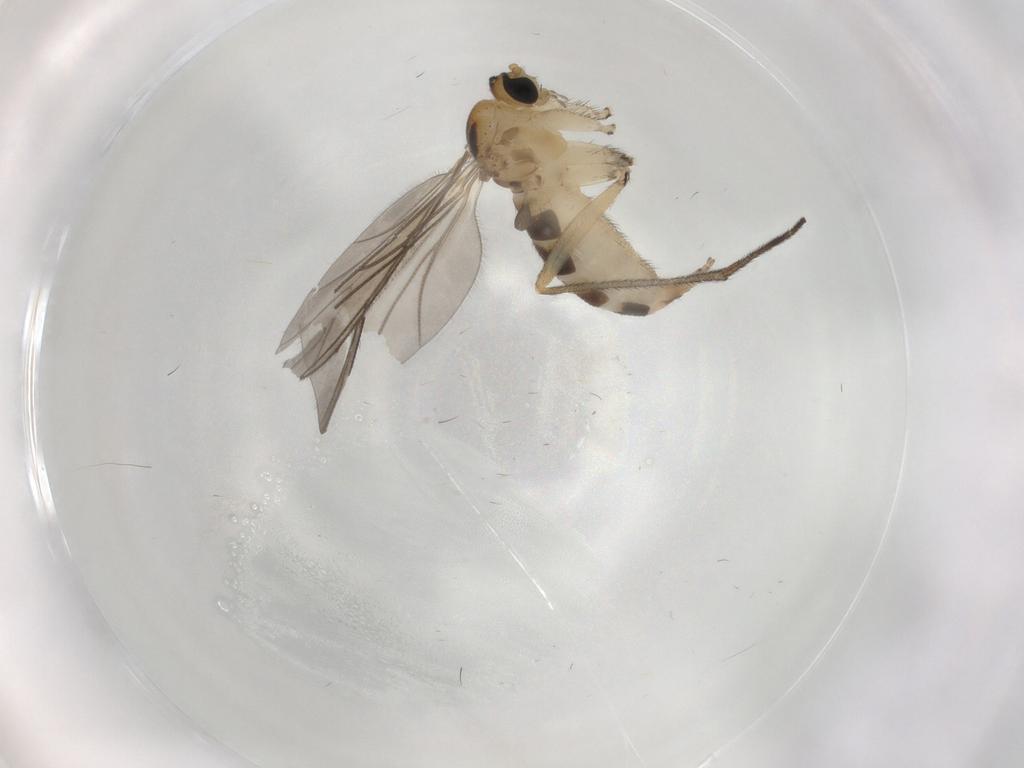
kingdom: Animalia
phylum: Arthropoda
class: Insecta
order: Diptera
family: Sciaridae
